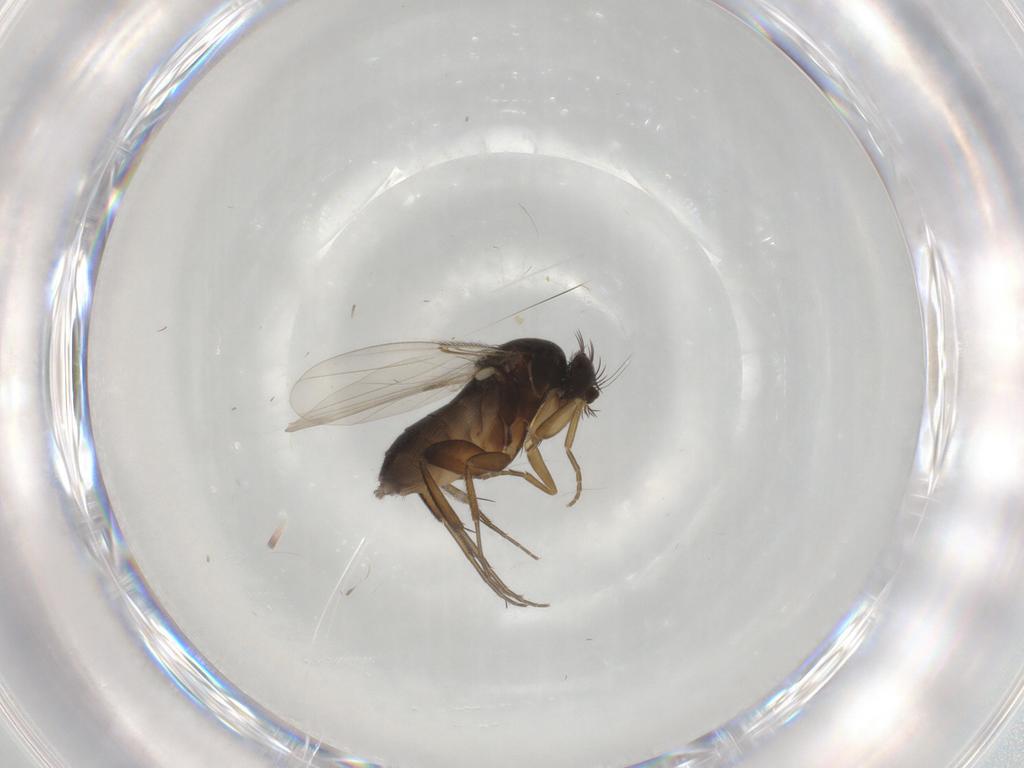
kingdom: Animalia
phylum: Arthropoda
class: Insecta
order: Diptera
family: Phoridae
